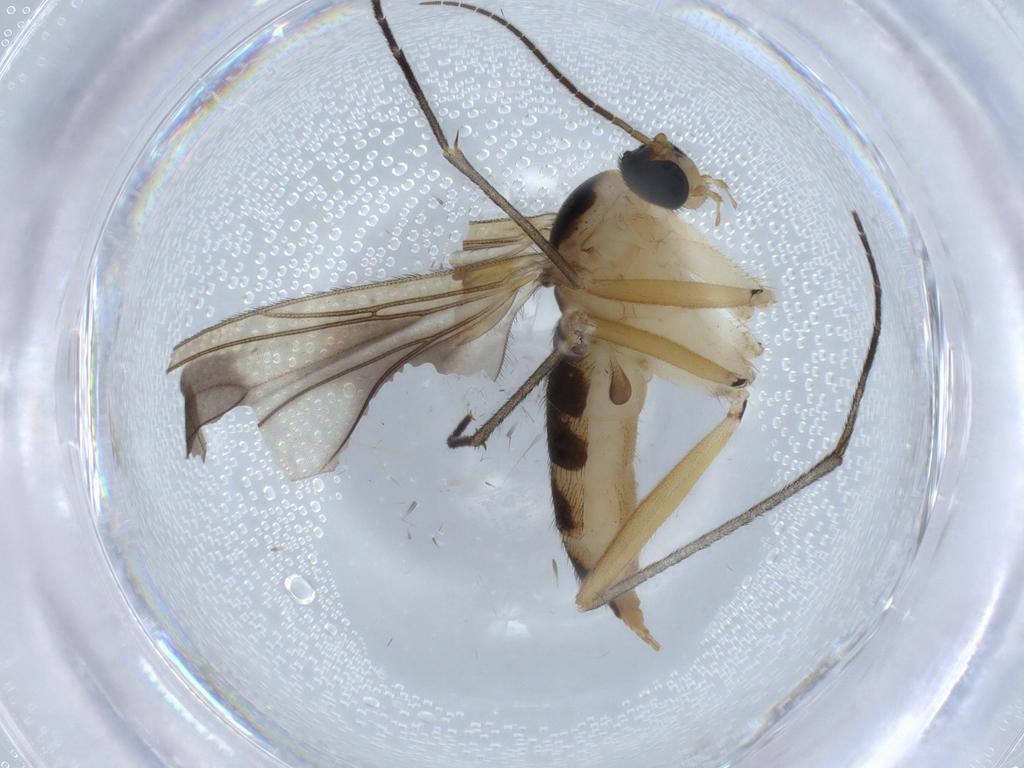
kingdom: Animalia
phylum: Arthropoda
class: Insecta
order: Diptera
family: Sciaridae
